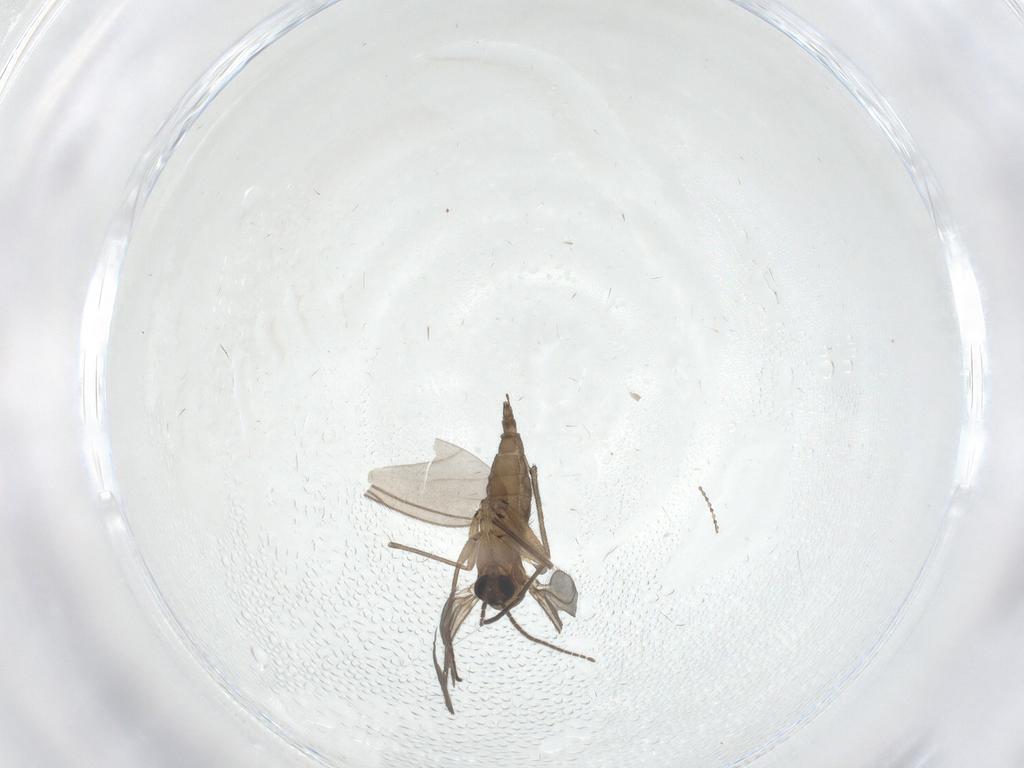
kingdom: Animalia
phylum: Arthropoda
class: Insecta
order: Diptera
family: Sciaridae
